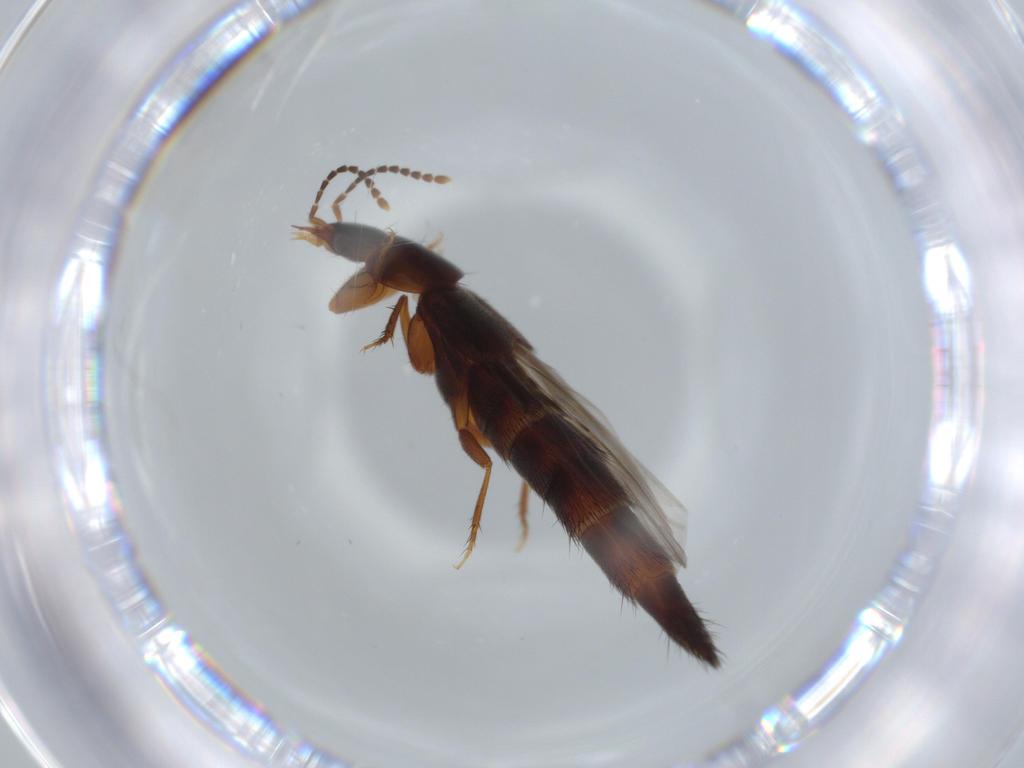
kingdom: Animalia
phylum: Arthropoda
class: Insecta
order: Coleoptera
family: Staphylinidae
